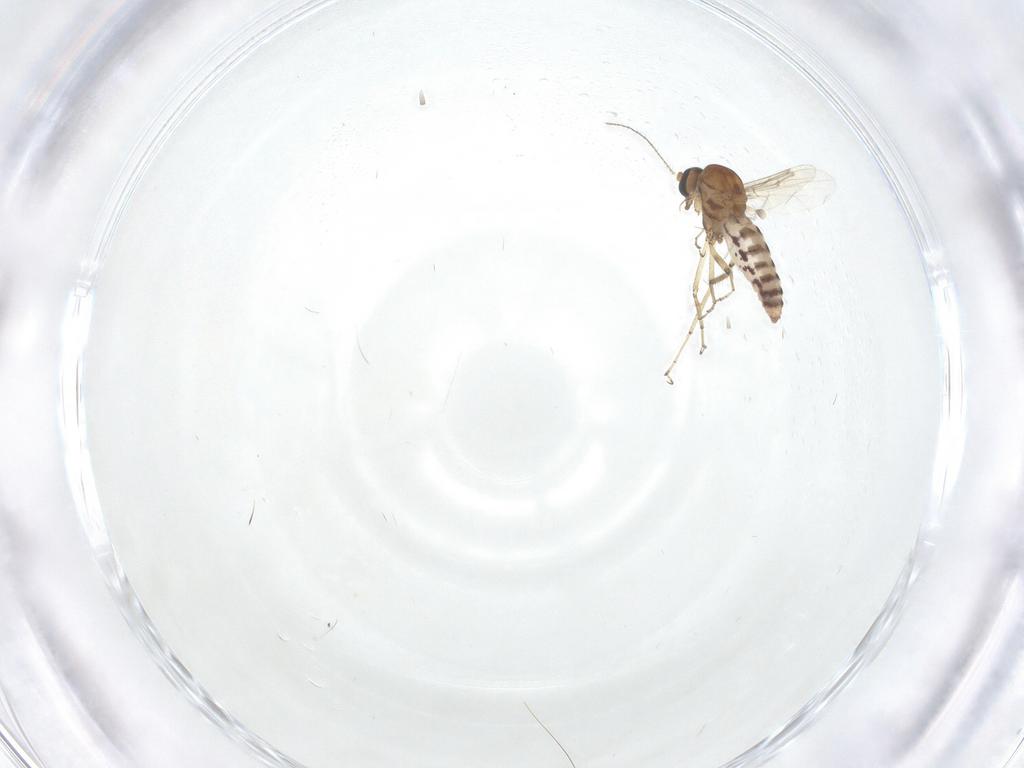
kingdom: Animalia
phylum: Arthropoda
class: Insecta
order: Diptera
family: Ceratopogonidae
